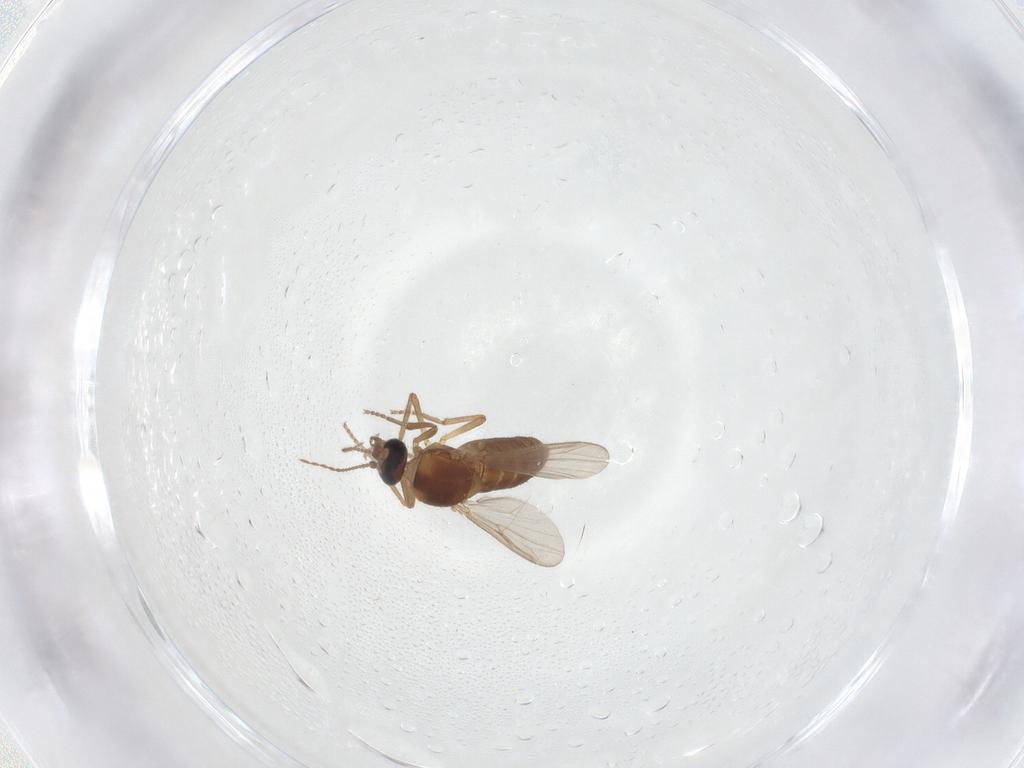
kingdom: Animalia
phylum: Arthropoda
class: Insecta
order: Diptera
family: Ceratopogonidae
